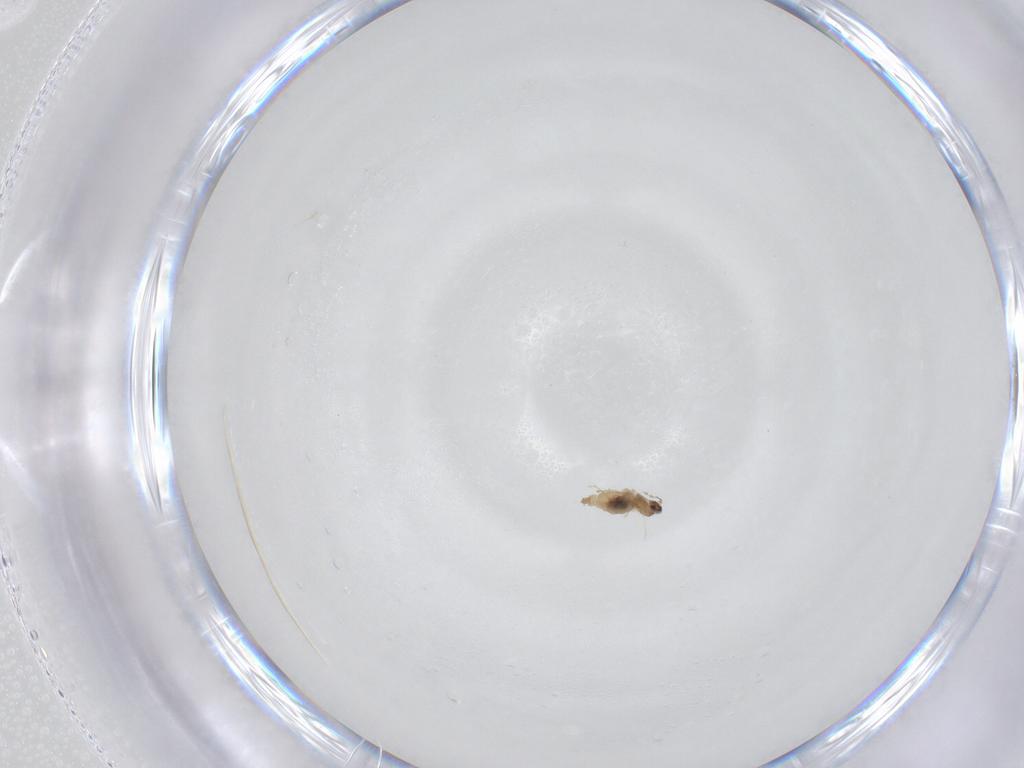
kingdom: Animalia
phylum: Arthropoda
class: Insecta
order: Diptera
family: Cecidomyiidae
